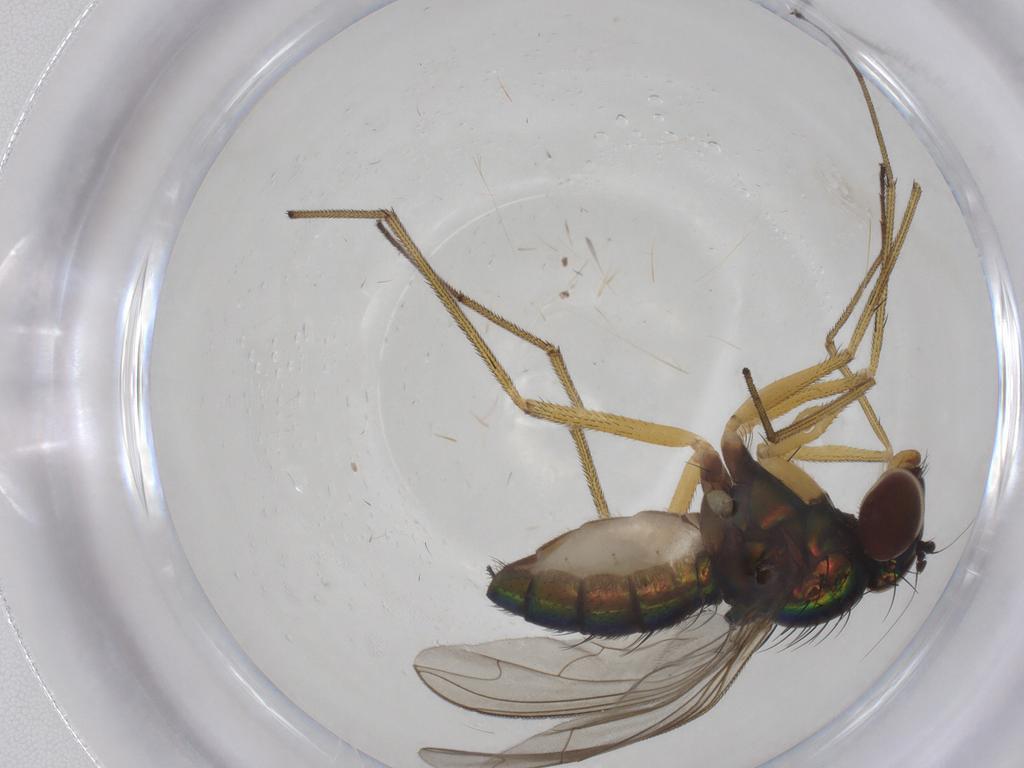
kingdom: Animalia
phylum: Arthropoda
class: Insecta
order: Diptera
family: Dolichopodidae
